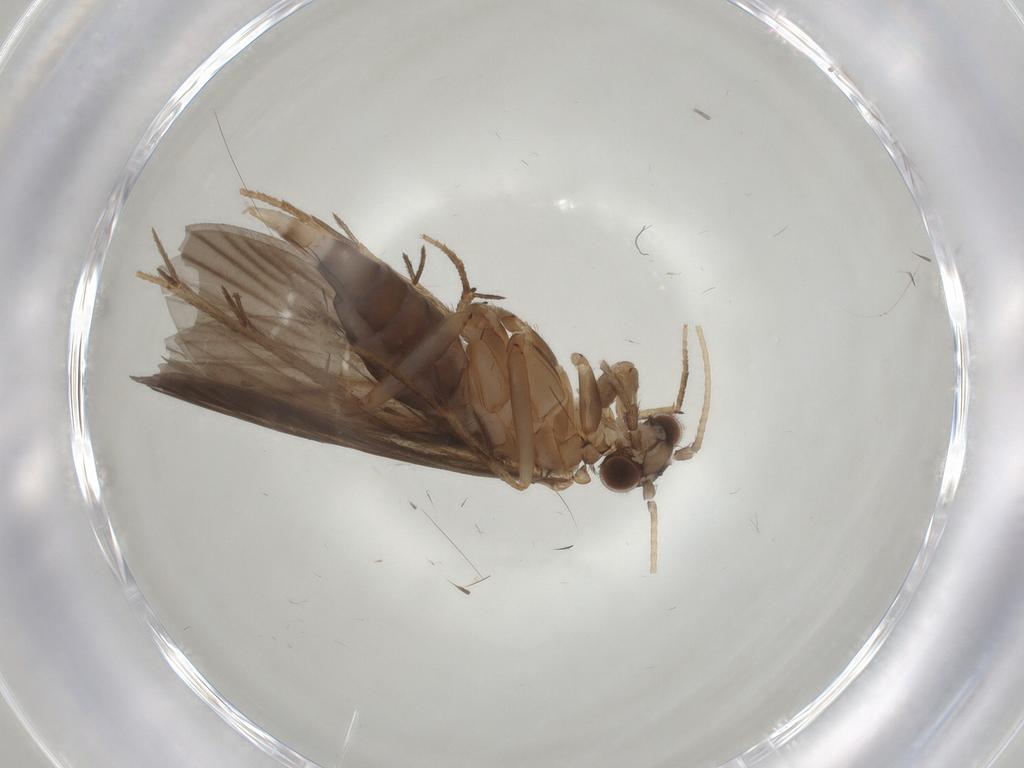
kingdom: Animalia
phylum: Arthropoda
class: Insecta
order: Trichoptera
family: Philopotamidae
